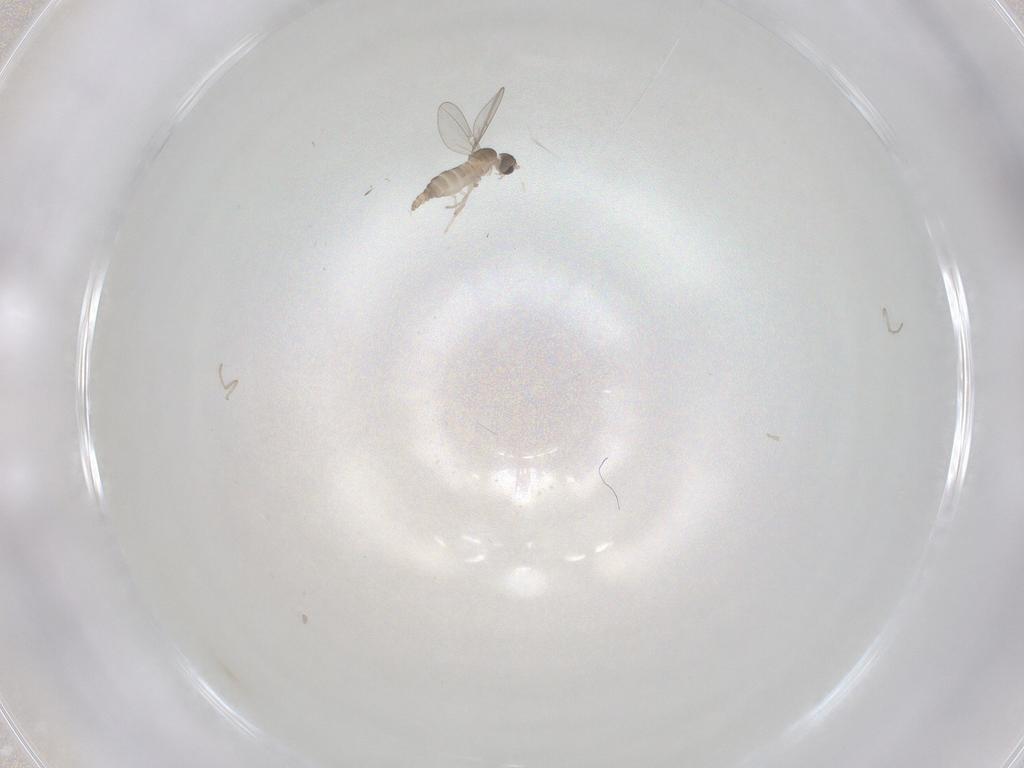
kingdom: Animalia
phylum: Arthropoda
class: Insecta
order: Diptera
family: Cecidomyiidae
